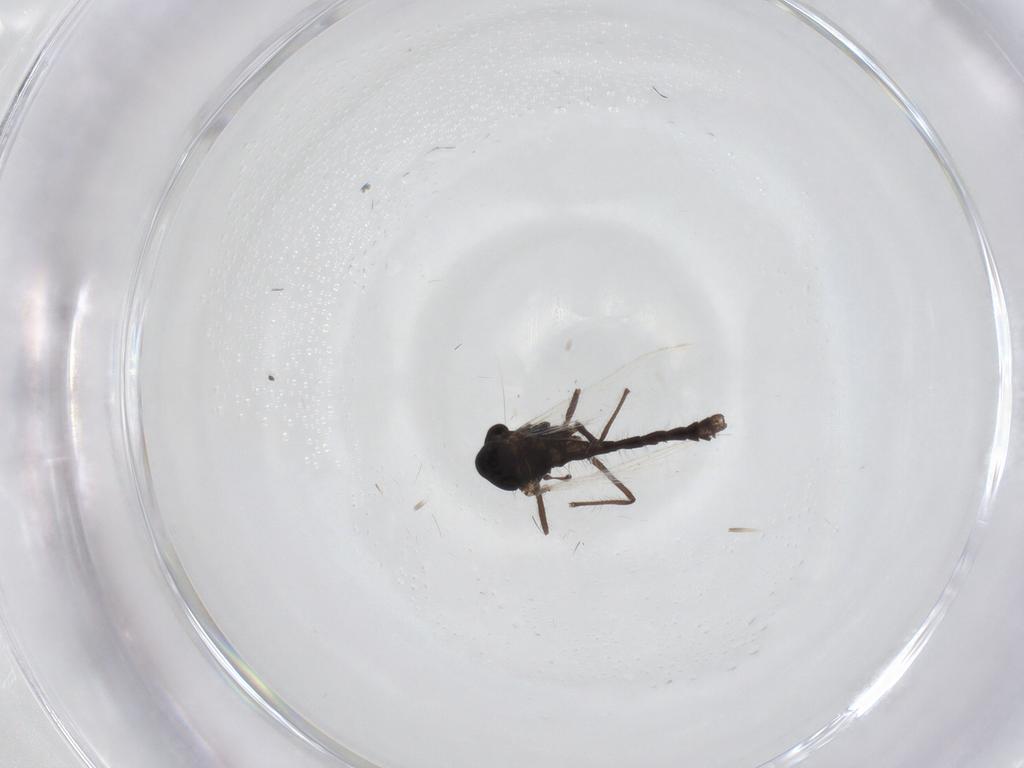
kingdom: Animalia
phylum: Arthropoda
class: Insecta
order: Diptera
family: Chironomidae
